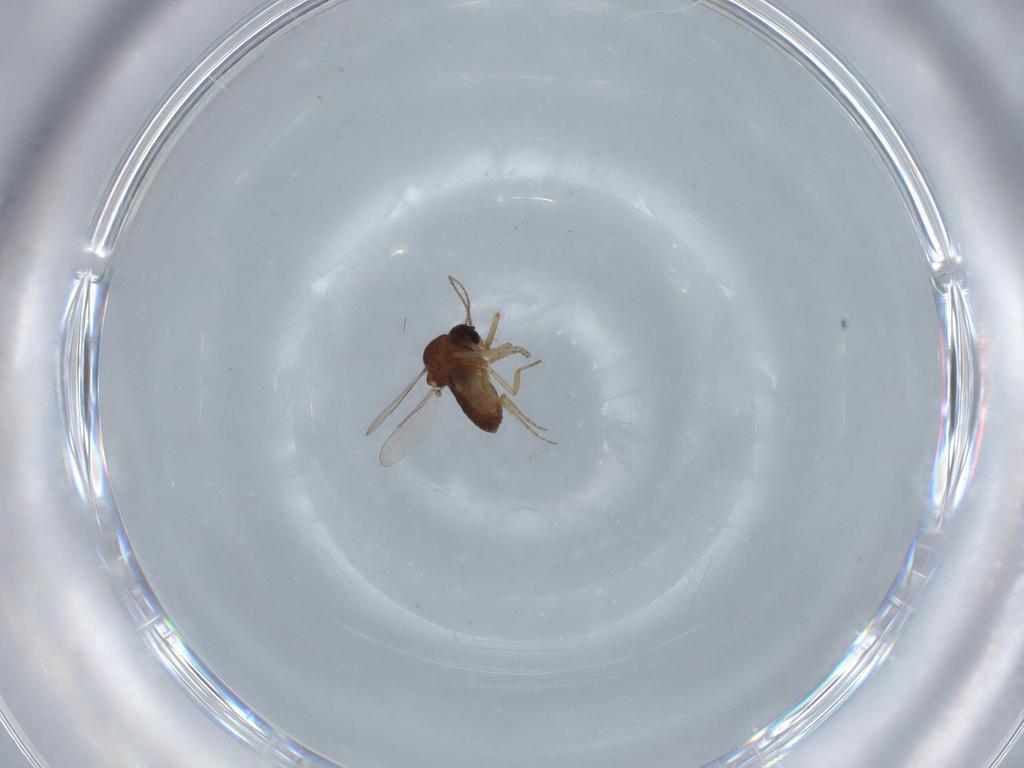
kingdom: Animalia
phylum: Arthropoda
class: Insecta
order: Diptera
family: Ceratopogonidae
